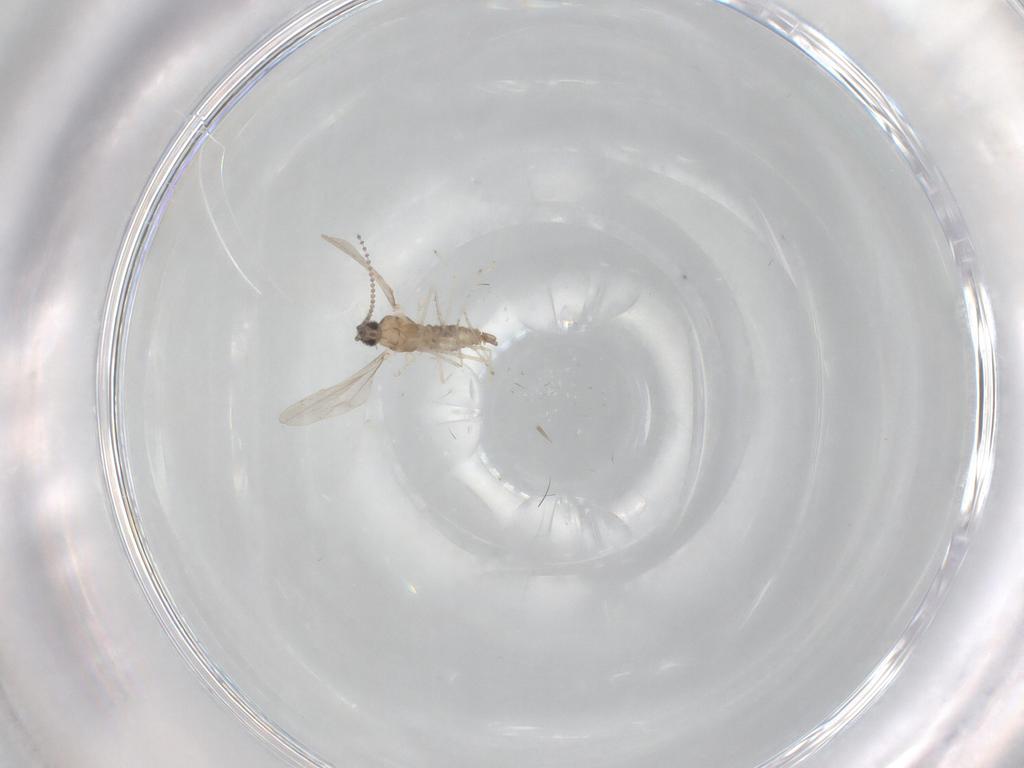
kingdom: Animalia
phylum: Arthropoda
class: Insecta
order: Diptera
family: Cecidomyiidae
